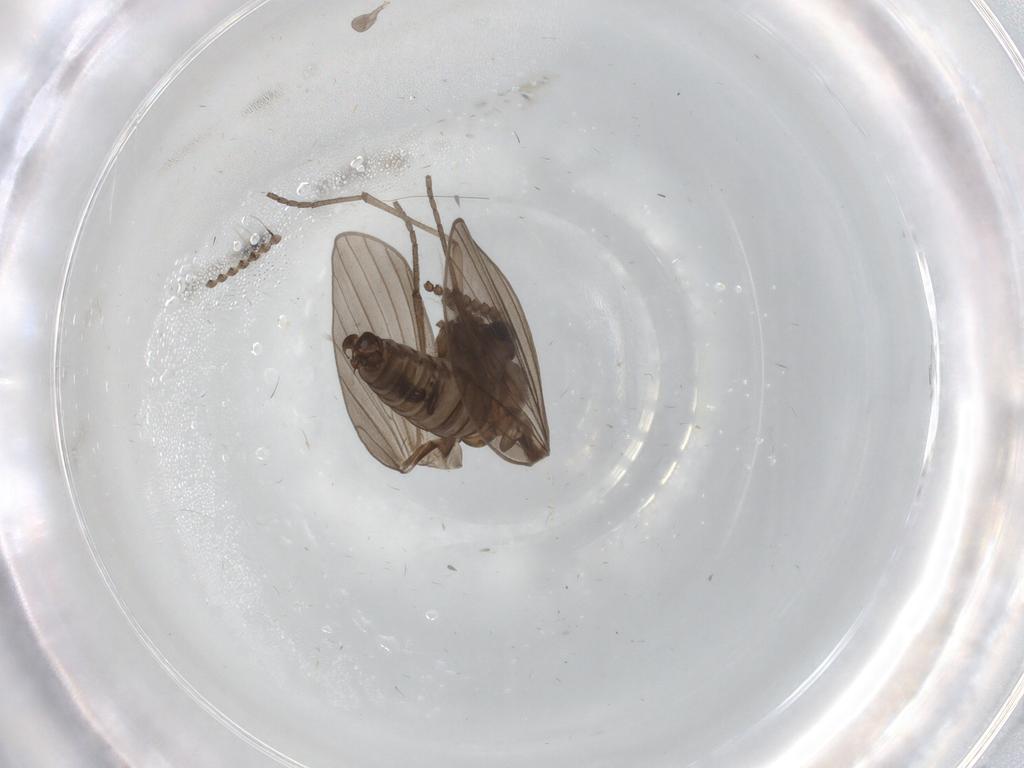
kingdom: Animalia
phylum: Arthropoda
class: Insecta
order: Diptera
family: Psychodidae
